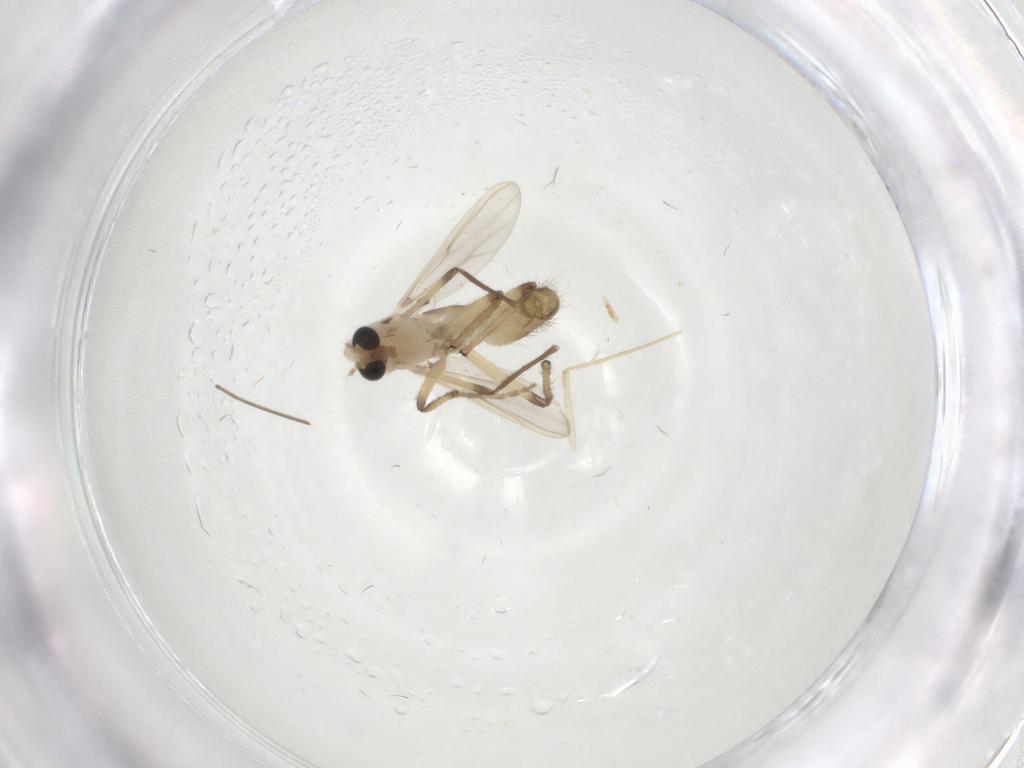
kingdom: Animalia
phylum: Arthropoda
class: Insecta
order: Diptera
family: Psychodidae
